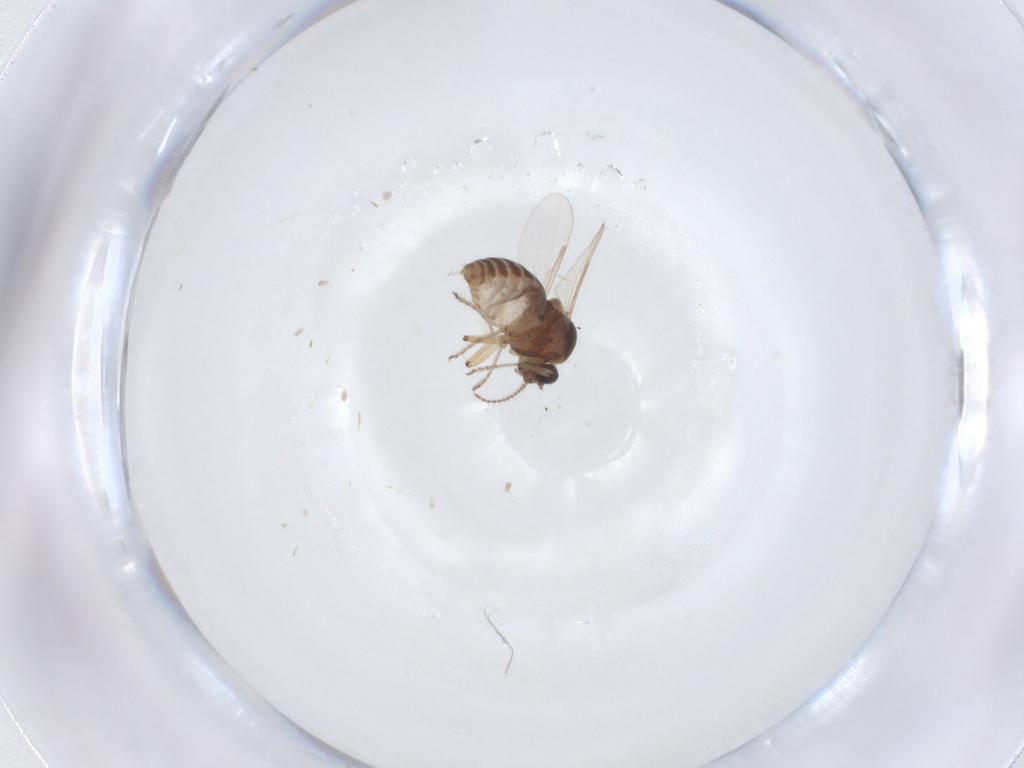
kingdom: Animalia
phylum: Arthropoda
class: Insecta
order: Diptera
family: Ceratopogonidae
